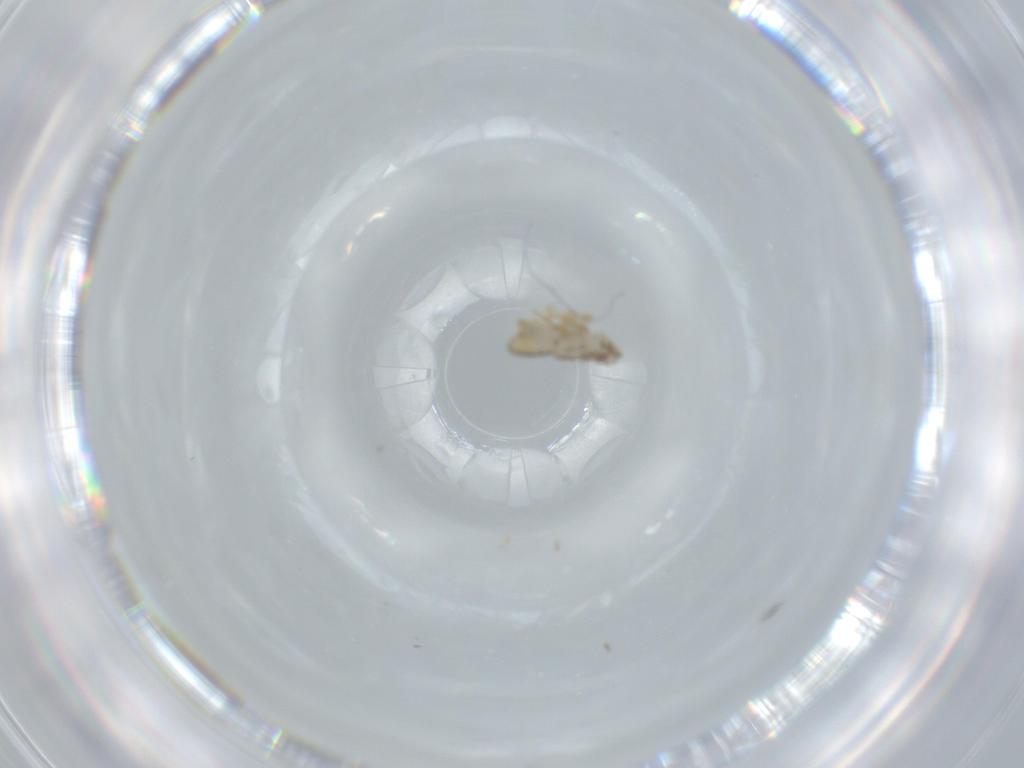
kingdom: Animalia
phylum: Arthropoda
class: Insecta
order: Hemiptera
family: Delphacidae
